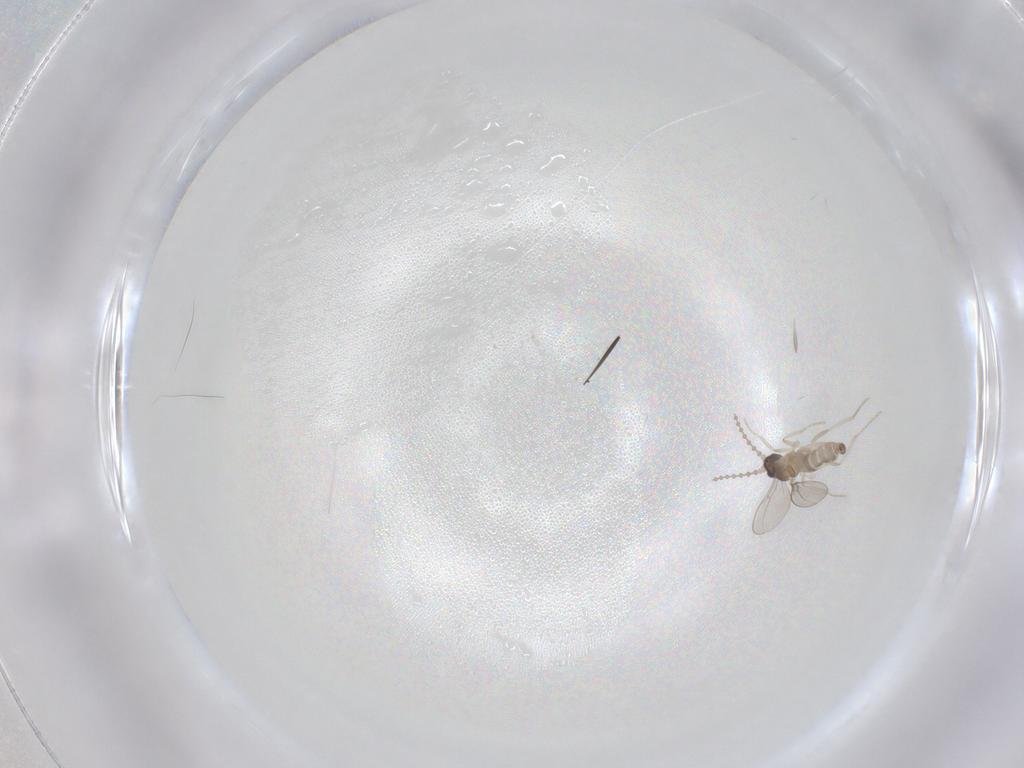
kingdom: Animalia
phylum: Arthropoda
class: Insecta
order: Diptera
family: Cecidomyiidae
